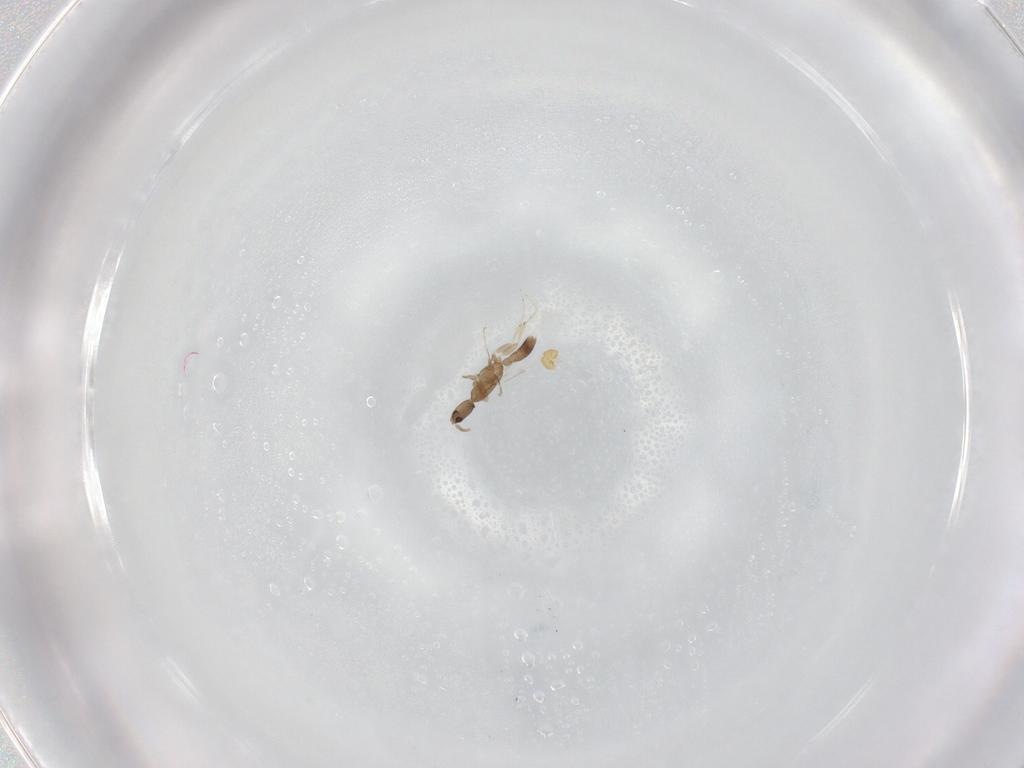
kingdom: Animalia
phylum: Arthropoda
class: Insecta
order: Hymenoptera
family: Formicidae
